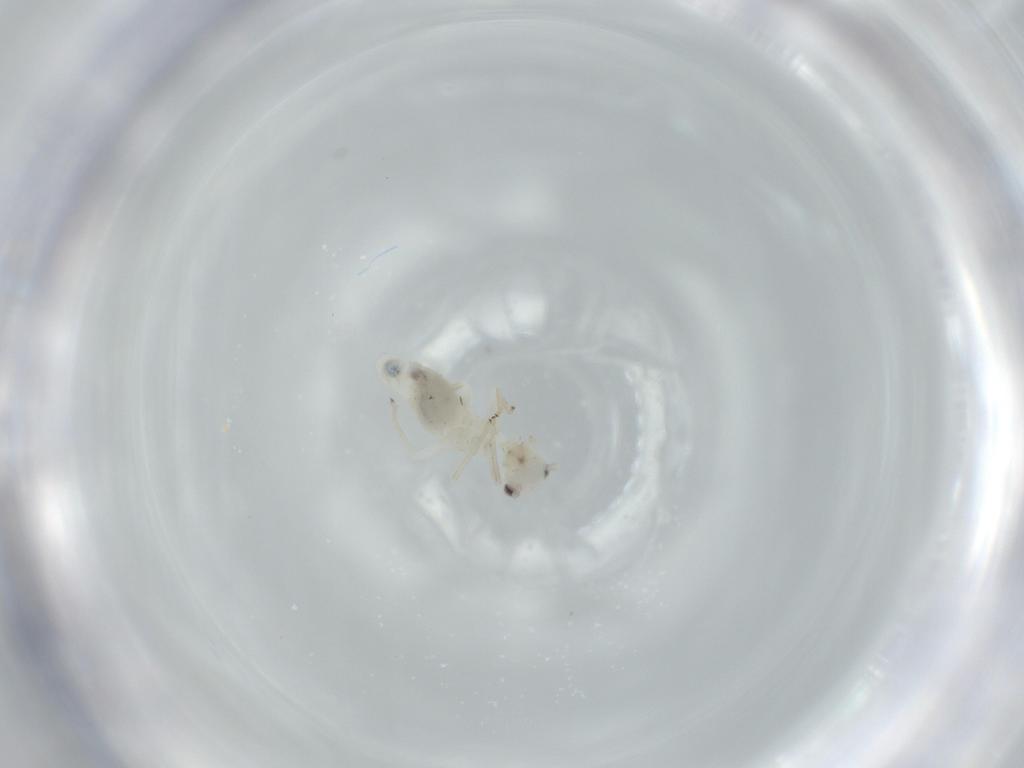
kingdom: Animalia
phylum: Arthropoda
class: Insecta
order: Psocodea
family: Caeciliusidae
